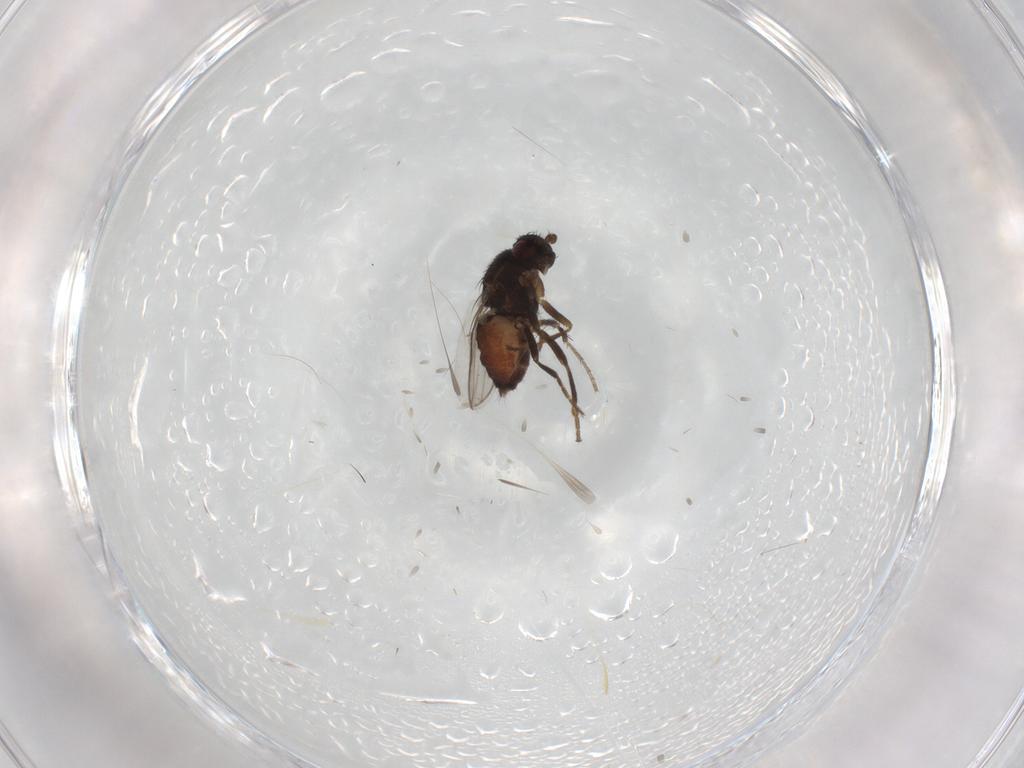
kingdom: Animalia
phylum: Arthropoda
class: Insecta
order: Diptera
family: Sphaeroceridae
